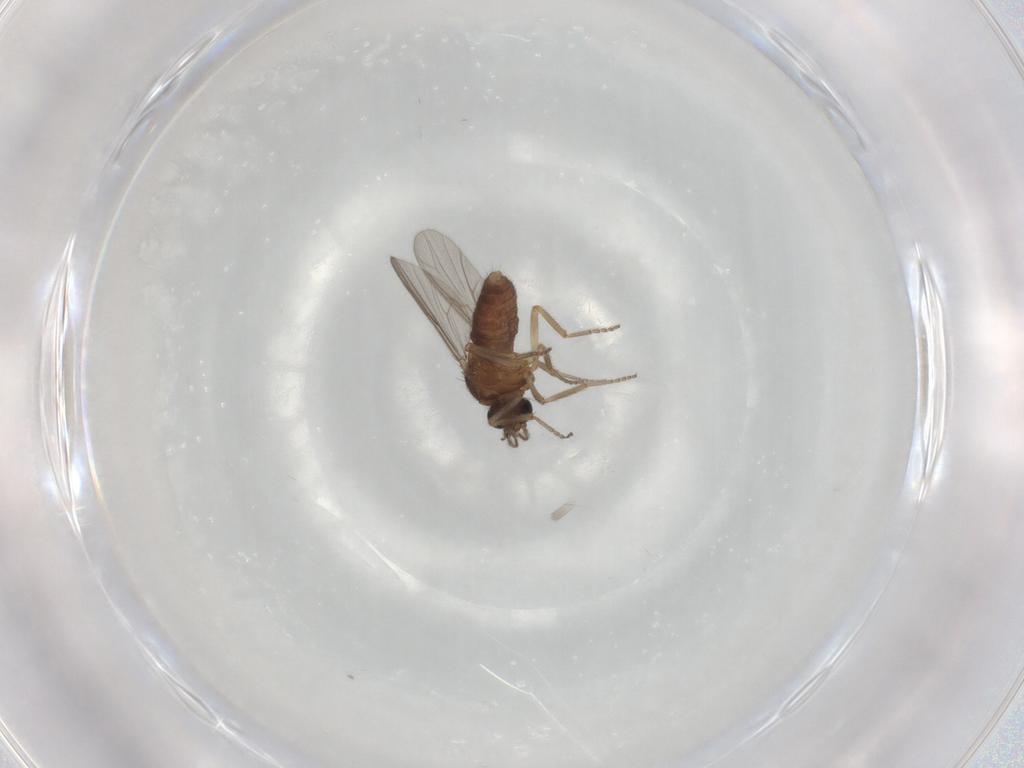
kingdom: Animalia
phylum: Arthropoda
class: Insecta
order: Diptera
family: Ceratopogonidae
